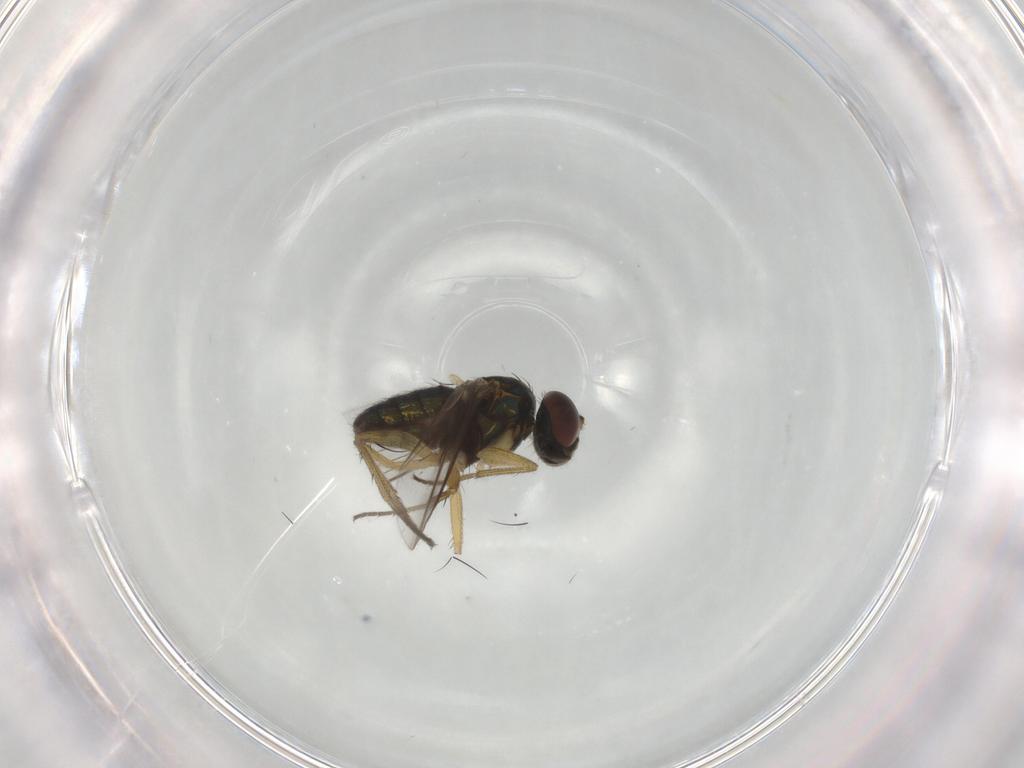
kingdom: Animalia
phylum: Arthropoda
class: Insecta
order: Diptera
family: Dolichopodidae
